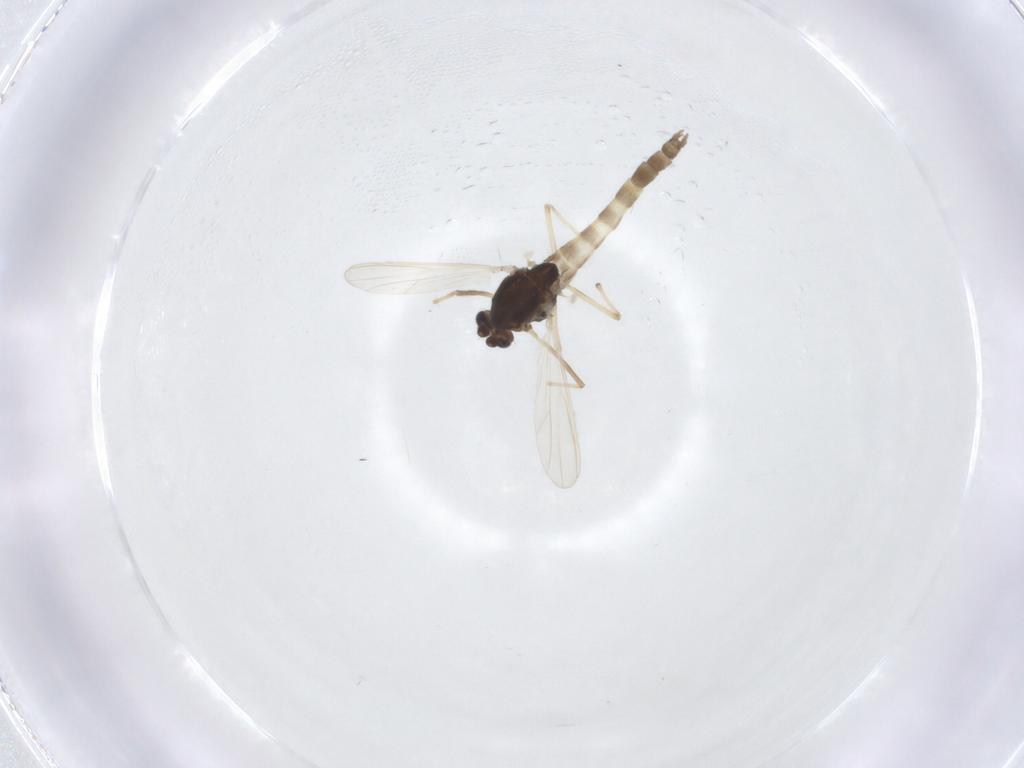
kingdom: Animalia
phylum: Arthropoda
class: Insecta
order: Diptera
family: Chironomidae
